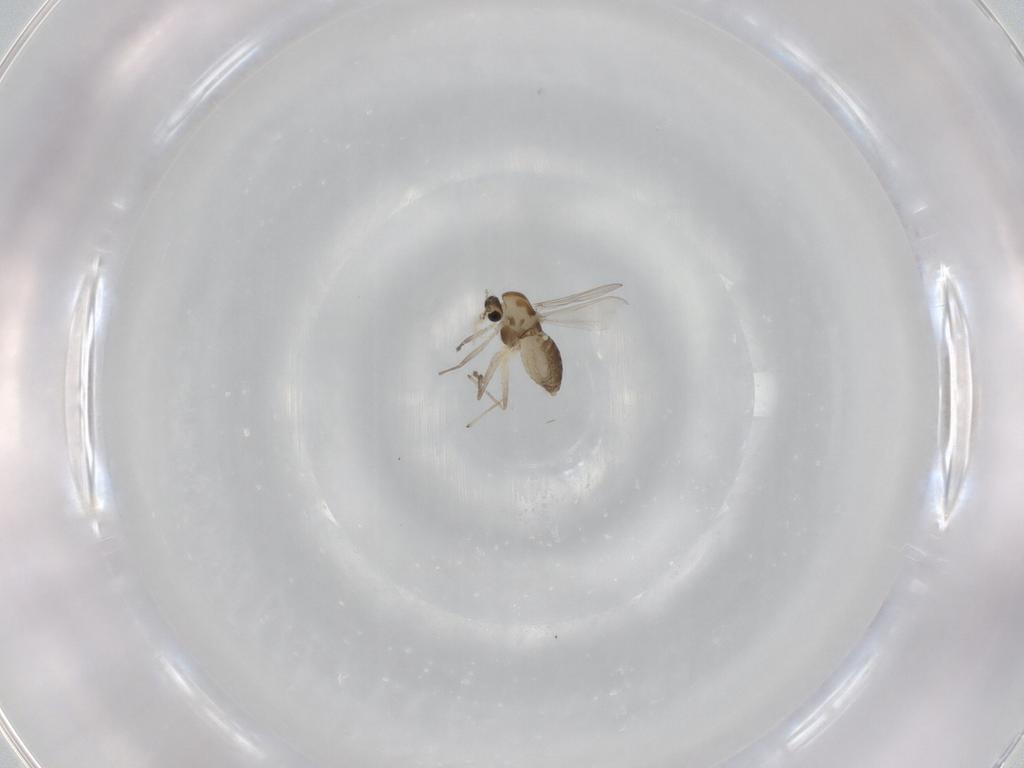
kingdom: Animalia
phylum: Arthropoda
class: Insecta
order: Diptera
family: Chironomidae
